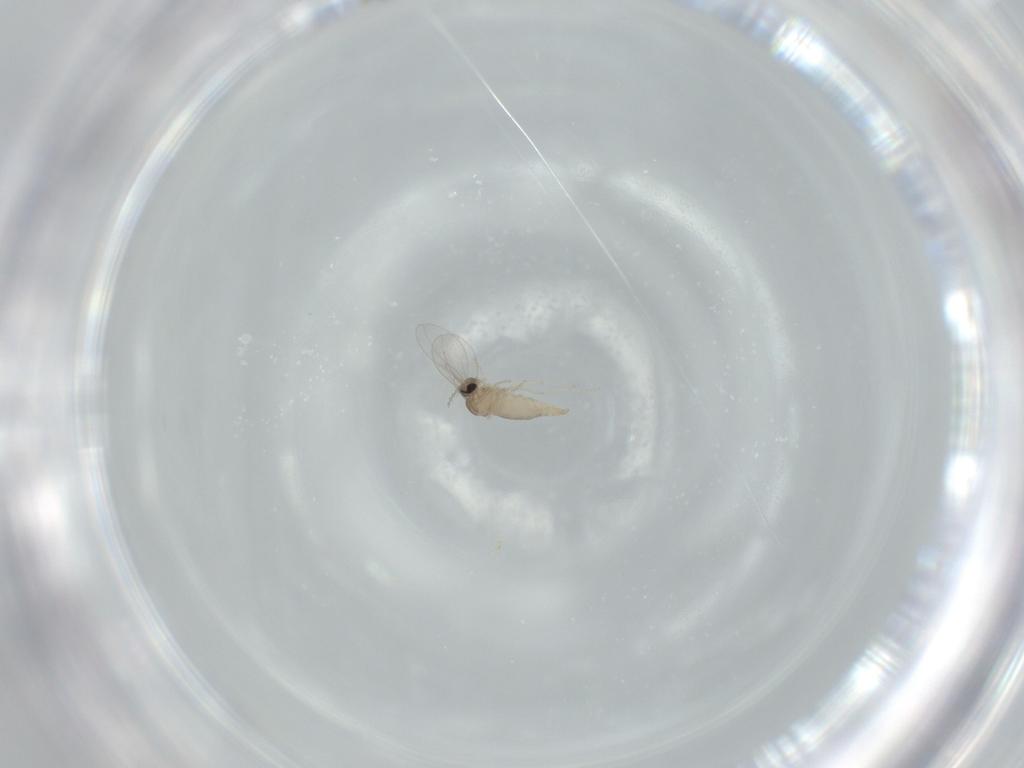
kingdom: Animalia
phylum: Arthropoda
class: Insecta
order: Diptera
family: Cecidomyiidae
